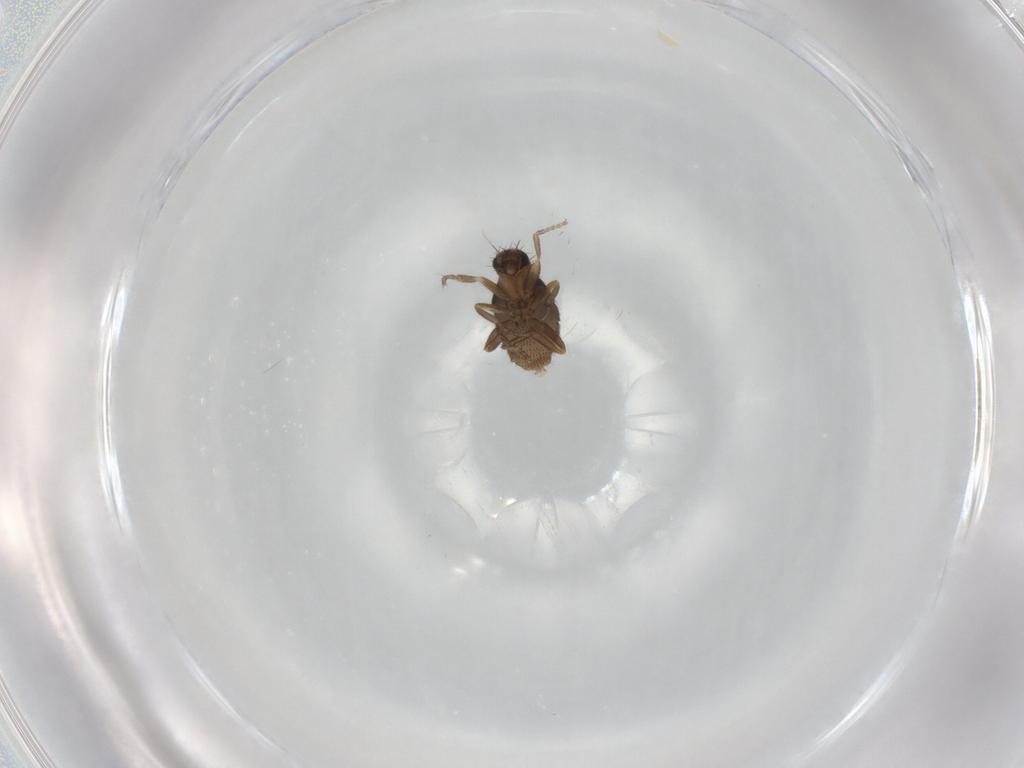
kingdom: Animalia
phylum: Arthropoda
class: Insecta
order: Diptera
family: Phoridae
